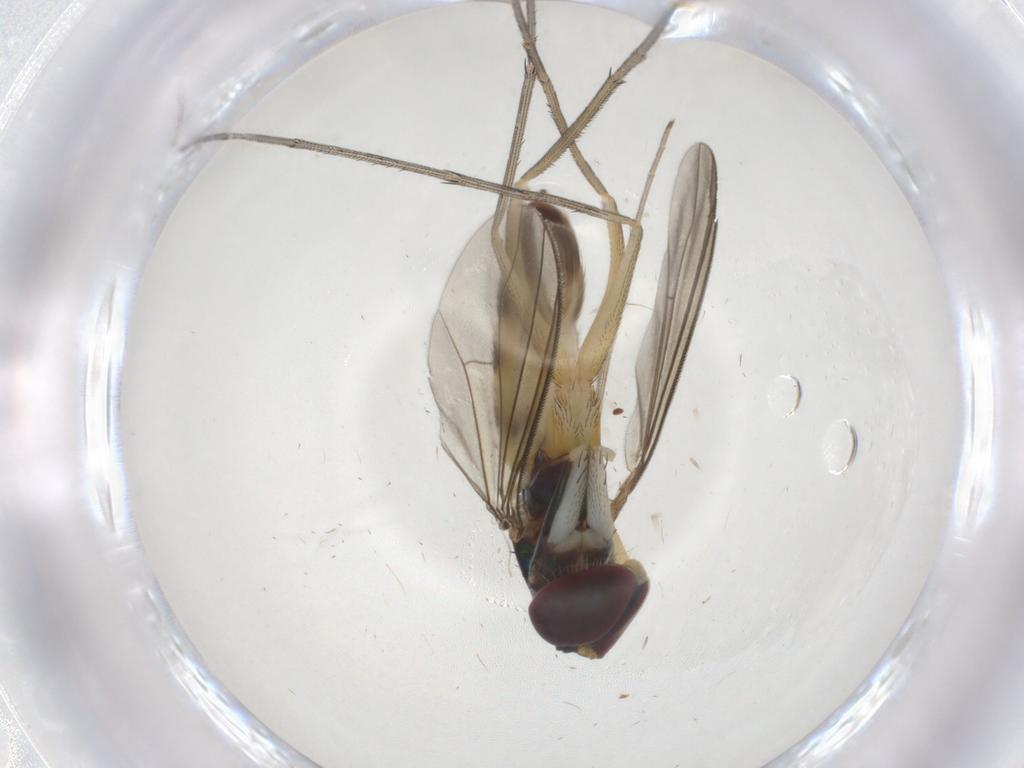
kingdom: Animalia
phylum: Arthropoda
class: Insecta
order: Diptera
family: Dolichopodidae
